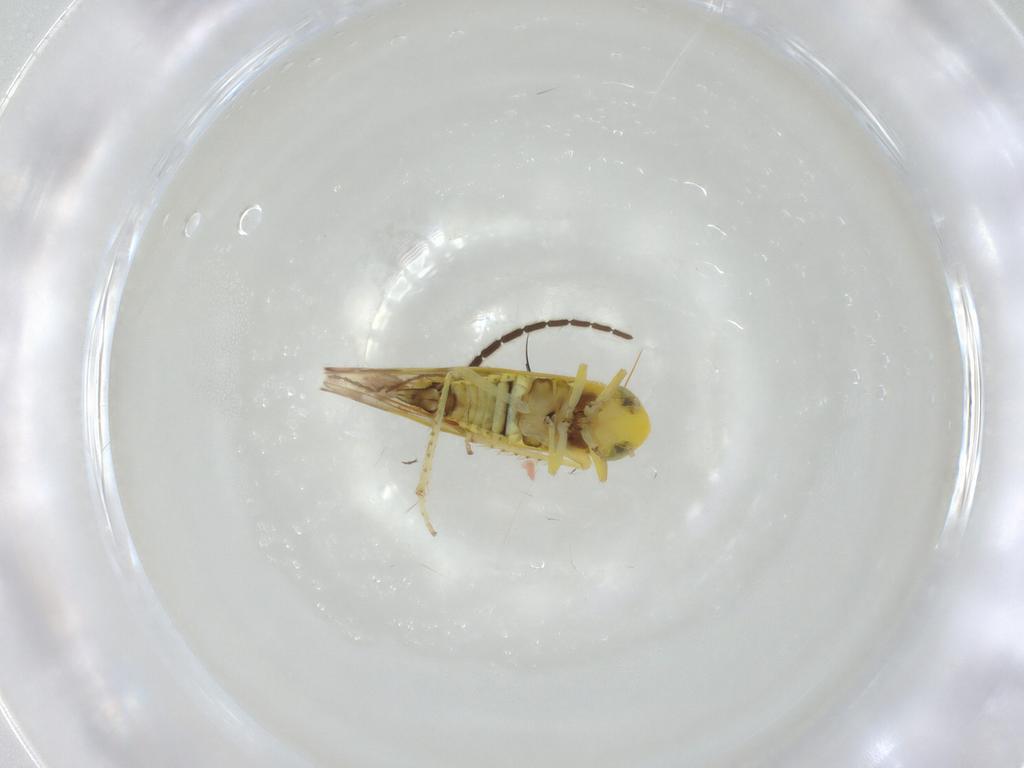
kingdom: Animalia
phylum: Arthropoda
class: Insecta
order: Hemiptera
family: Cicadellidae
